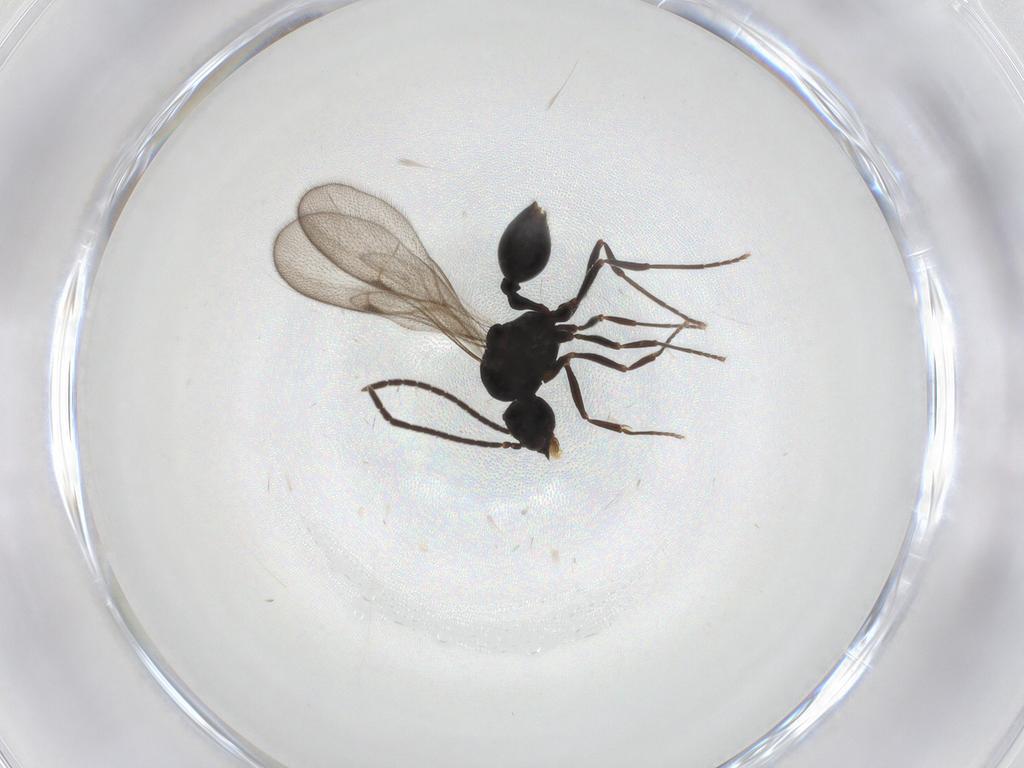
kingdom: Animalia
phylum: Arthropoda
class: Insecta
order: Hymenoptera
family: Formicidae
